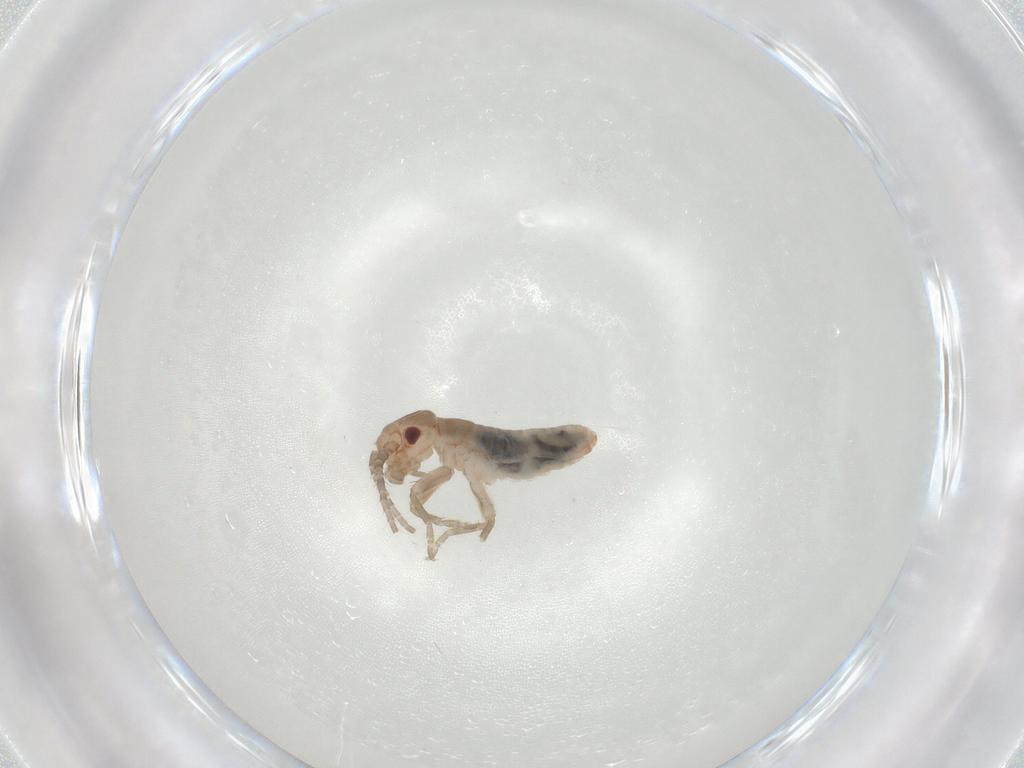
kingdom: Animalia
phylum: Arthropoda
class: Insecta
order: Orthoptera
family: Gryllidae
